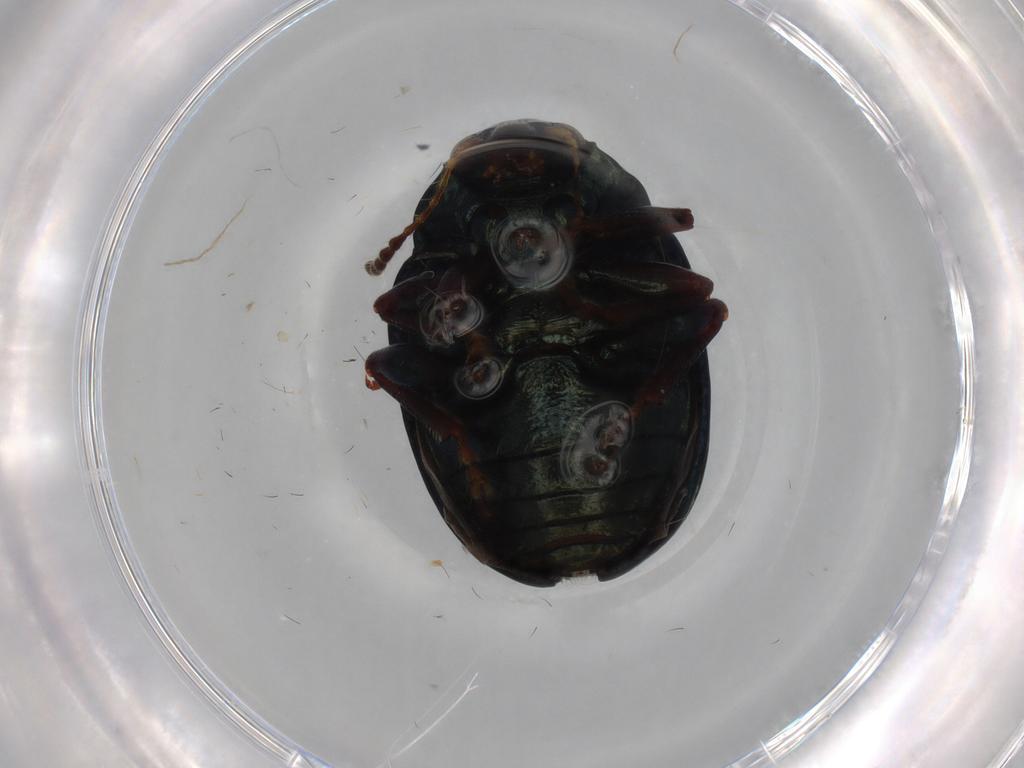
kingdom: Animalia
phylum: Arthropoda
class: Insecta
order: Coleoptera
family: Chrysomelidae
